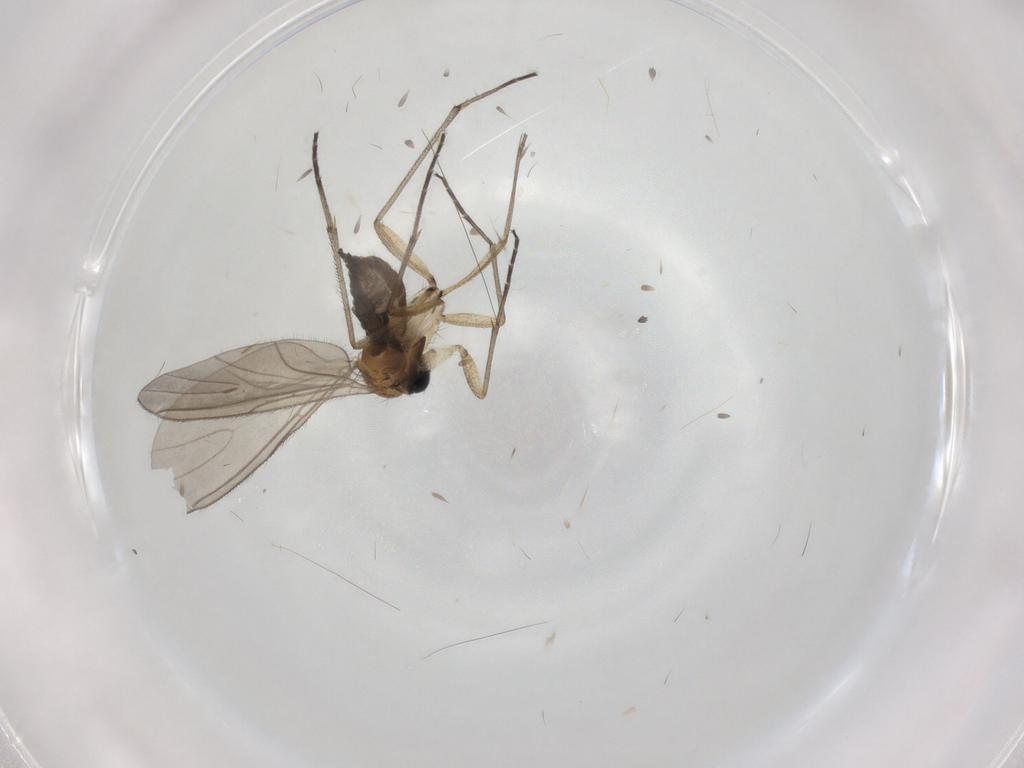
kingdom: Animalia
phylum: Arthropoda
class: Insecta
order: Diptera
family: Sciaridae
